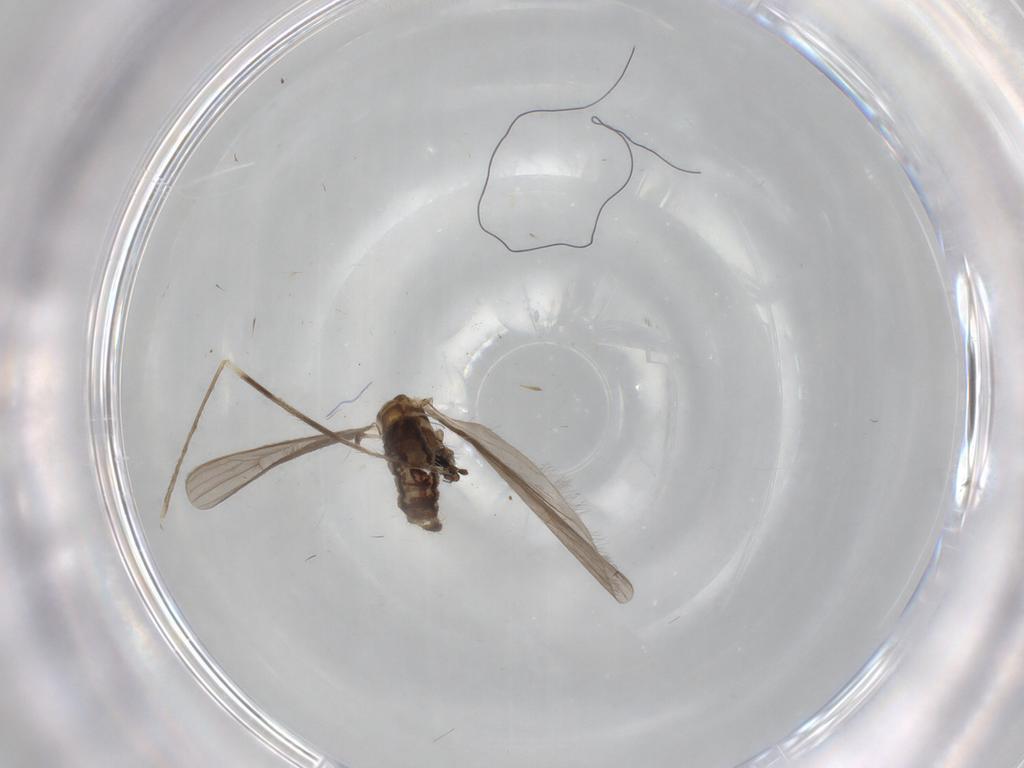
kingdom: Animalia
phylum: Arthropoda
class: Insecta
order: Diptera
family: Limoniidae
